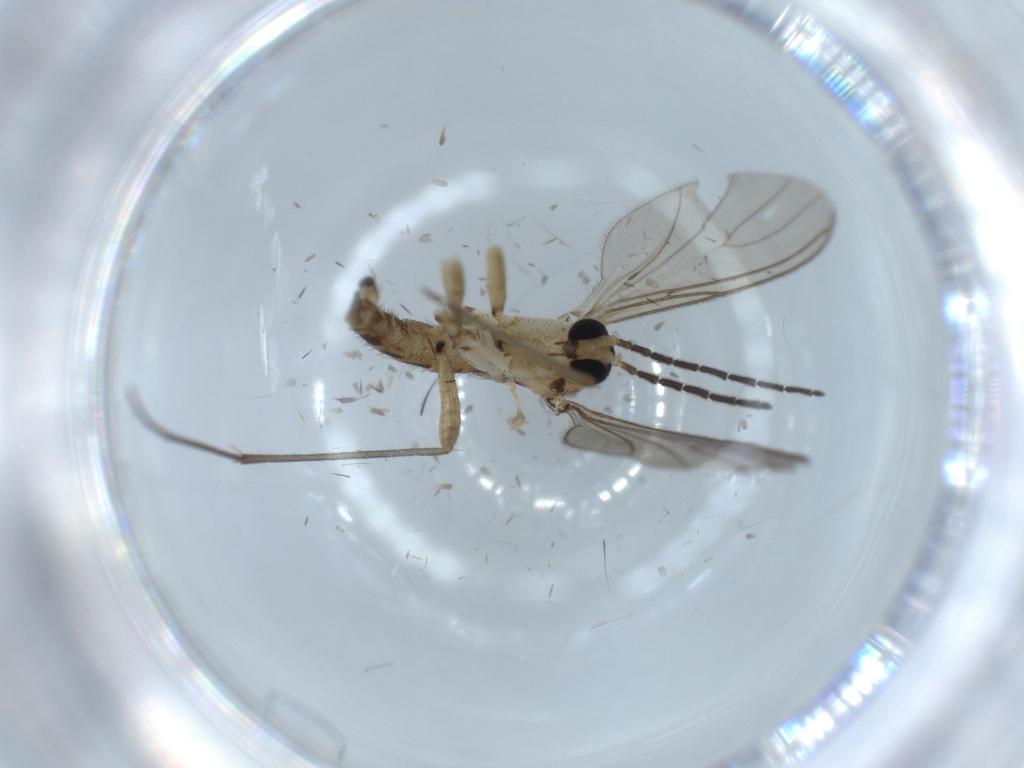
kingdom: Animalia
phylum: Arthropoda
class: Insecta
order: Diptera
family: Sciaridae
